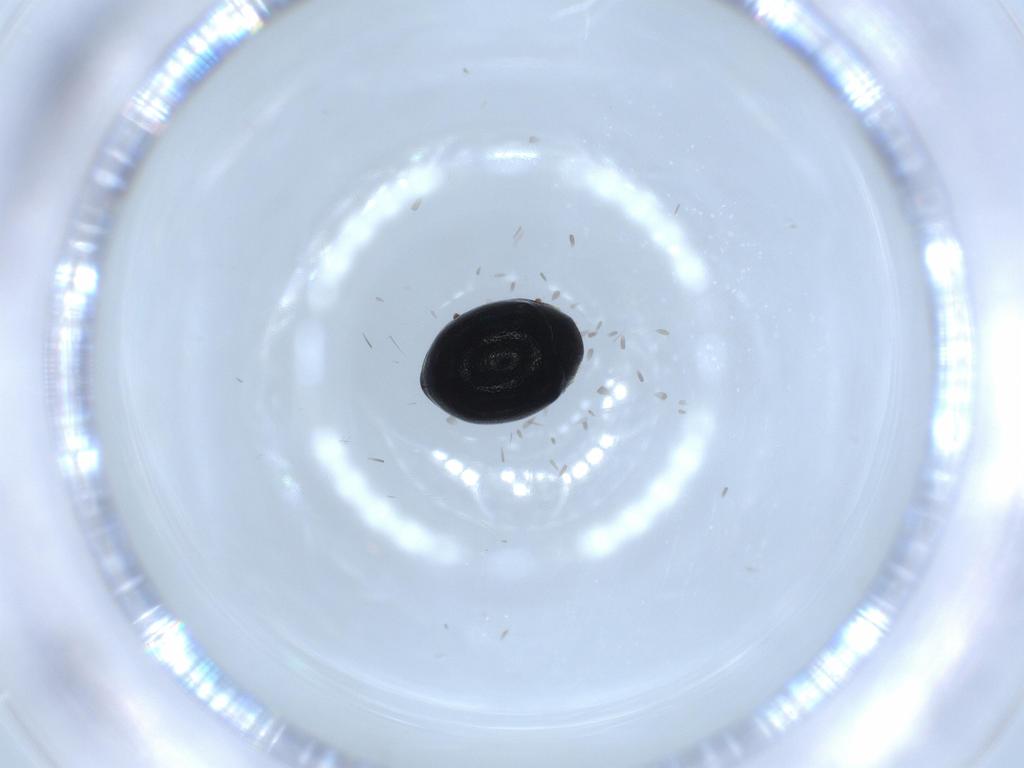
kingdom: Animalia
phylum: Arthropoda
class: Insecta
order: Coleoptera
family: Coccinellidae
